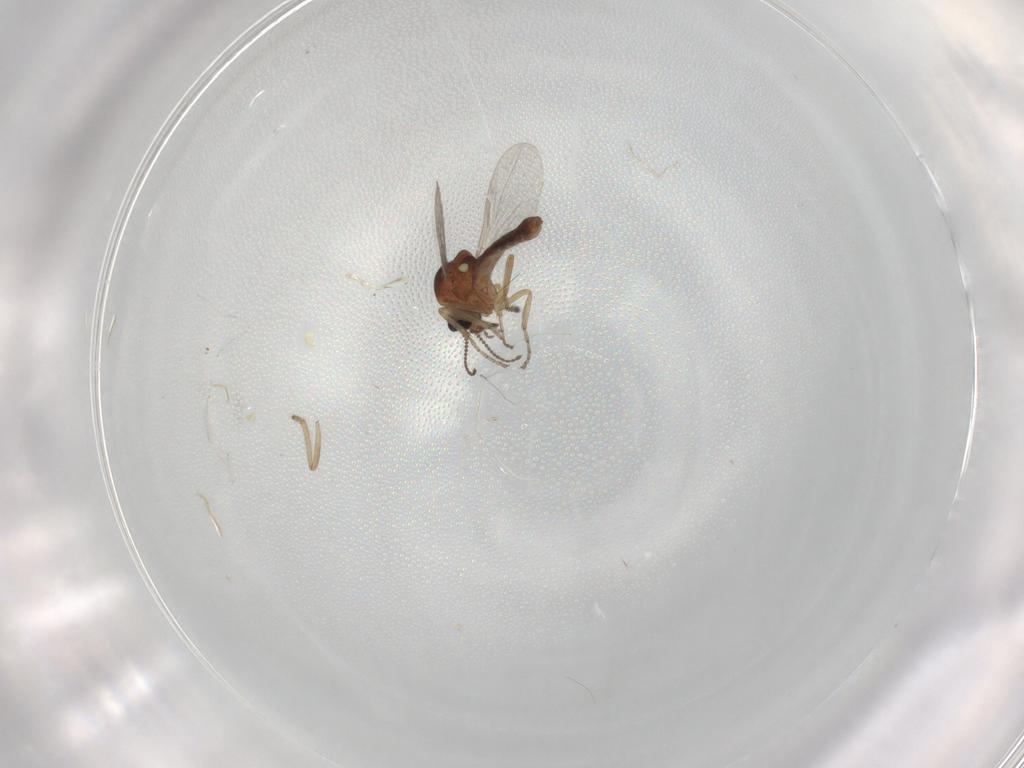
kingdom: Animalia
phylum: Arthropoda
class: Insecta
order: Diptera
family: Ceratopogonidae
